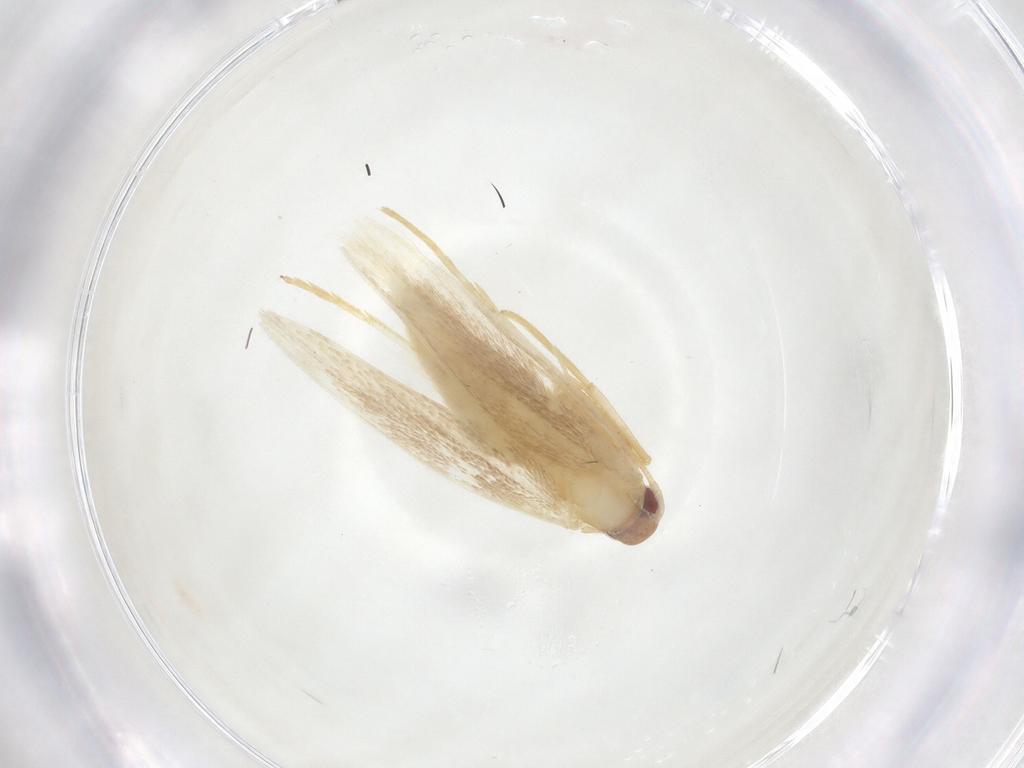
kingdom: Animalia
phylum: Arthropoda
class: Insecta
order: Lepidoptera
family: Cosmopterigidae
